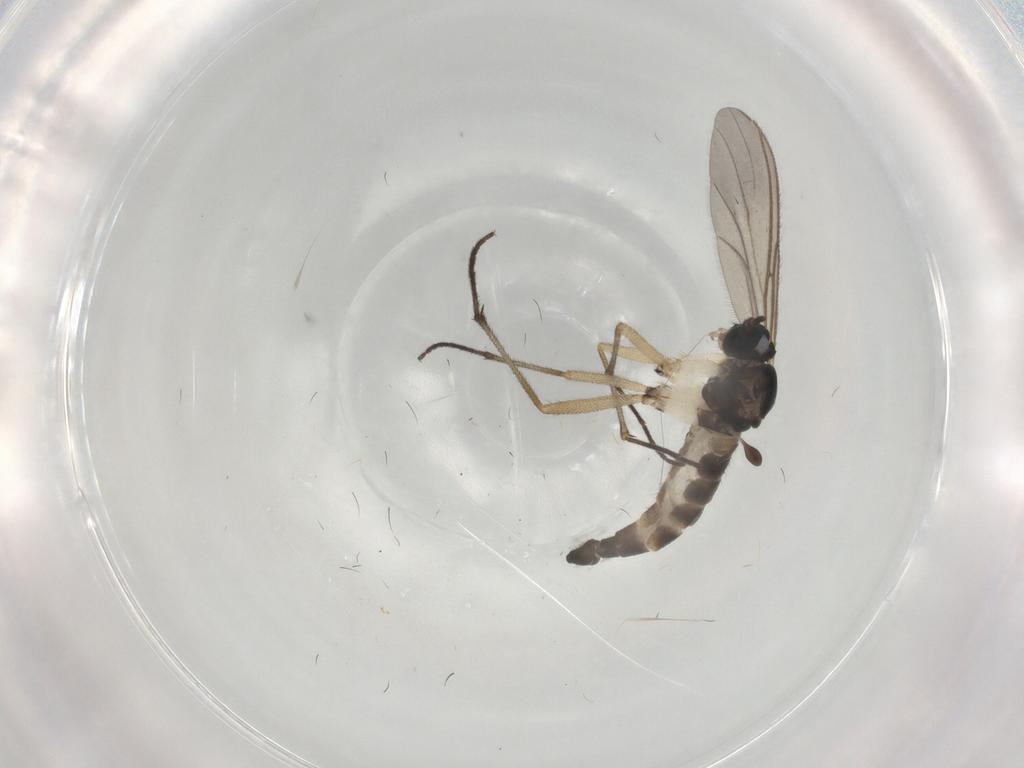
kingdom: Animalia
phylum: Arthropoda
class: Insecta
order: Diptera
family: Sciaridae
